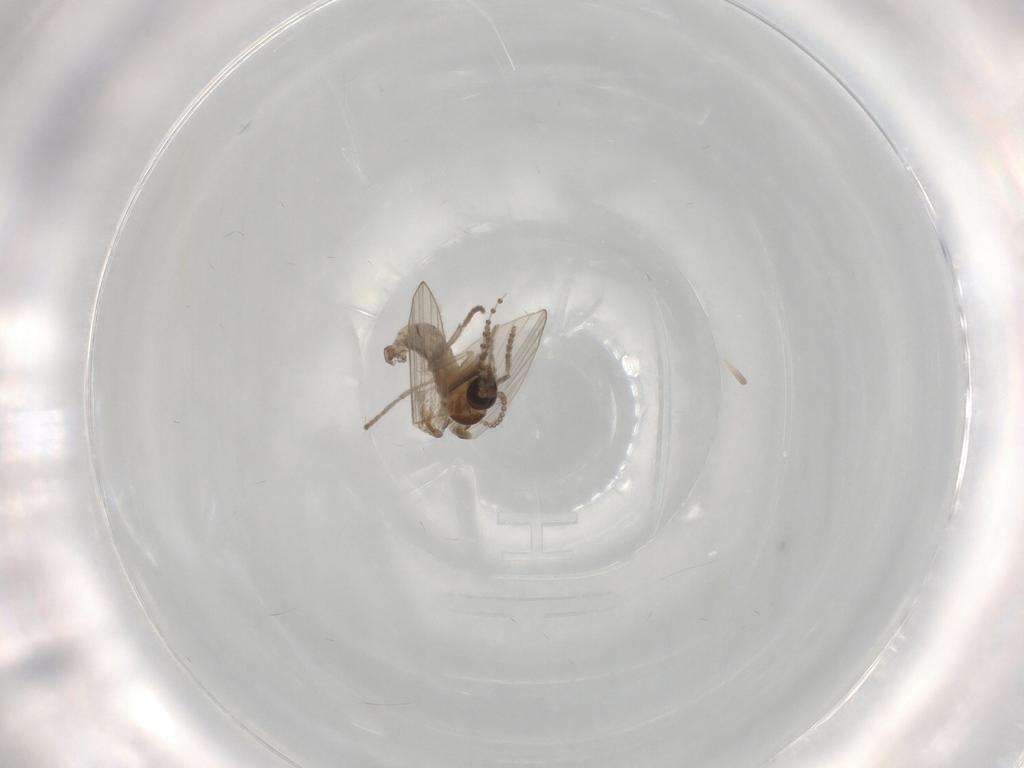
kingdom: Animalia
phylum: Arthropoda
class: Insecta
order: Diptera
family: Psychodidae
